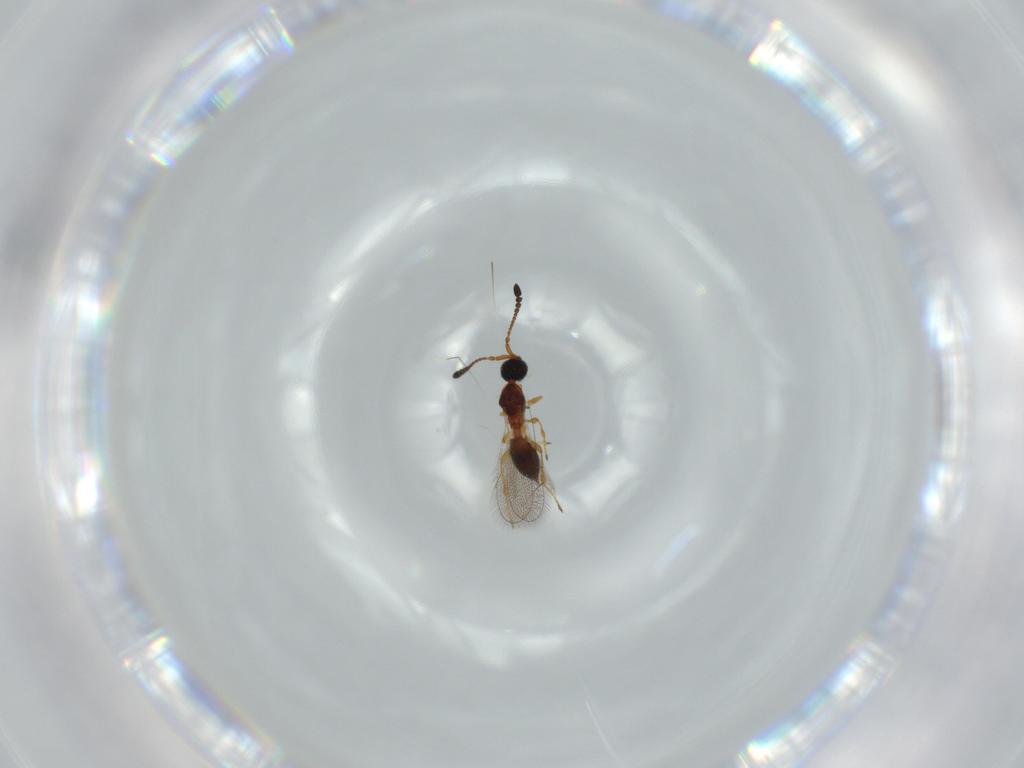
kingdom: Animalia
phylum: Arthropoda
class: Insecta
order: Hymenoptera
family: Diapriidae
